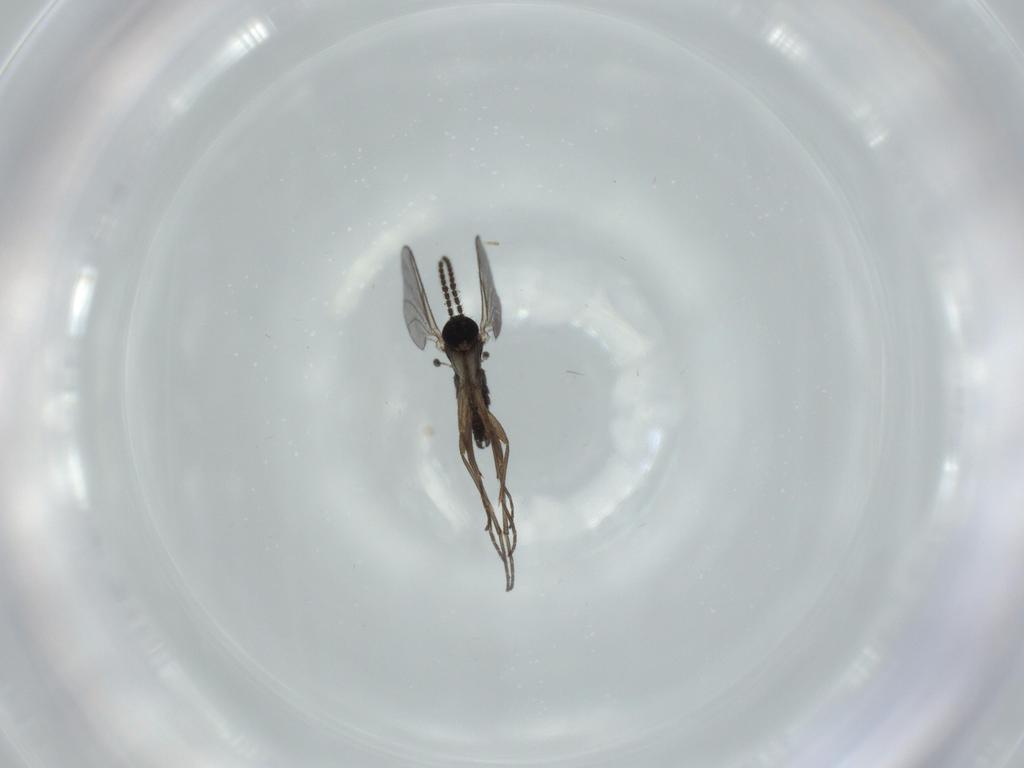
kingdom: Animalia
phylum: Arthropoda
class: Insecta
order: Diptera
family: Sciaridae
